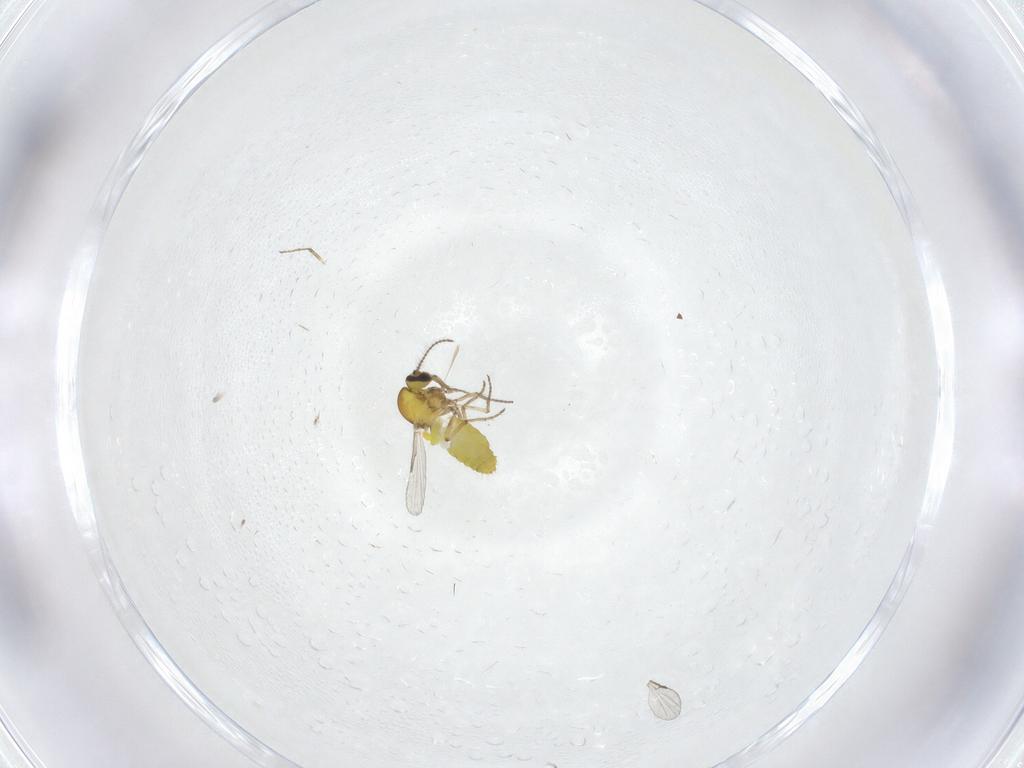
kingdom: Animalia
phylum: Arthropoda
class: Insecta
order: Diptera
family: Ceratopogonidae
